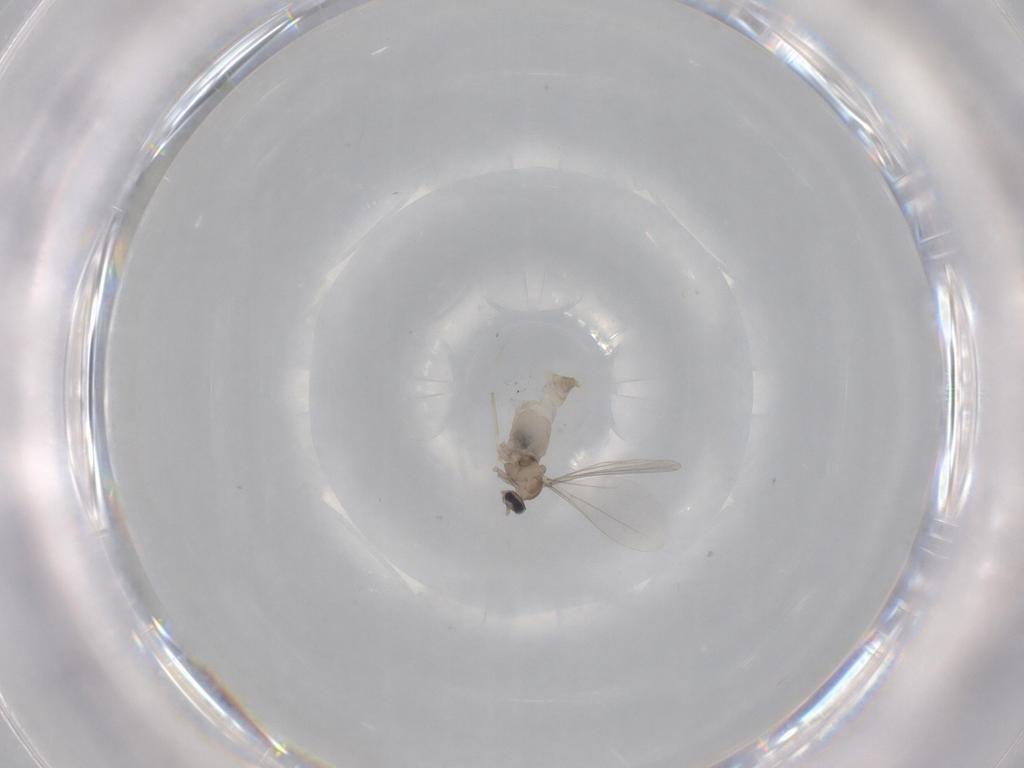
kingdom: Animalia
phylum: Arthropoda
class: Insecta
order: Diptera
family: Cecidomyiidae
